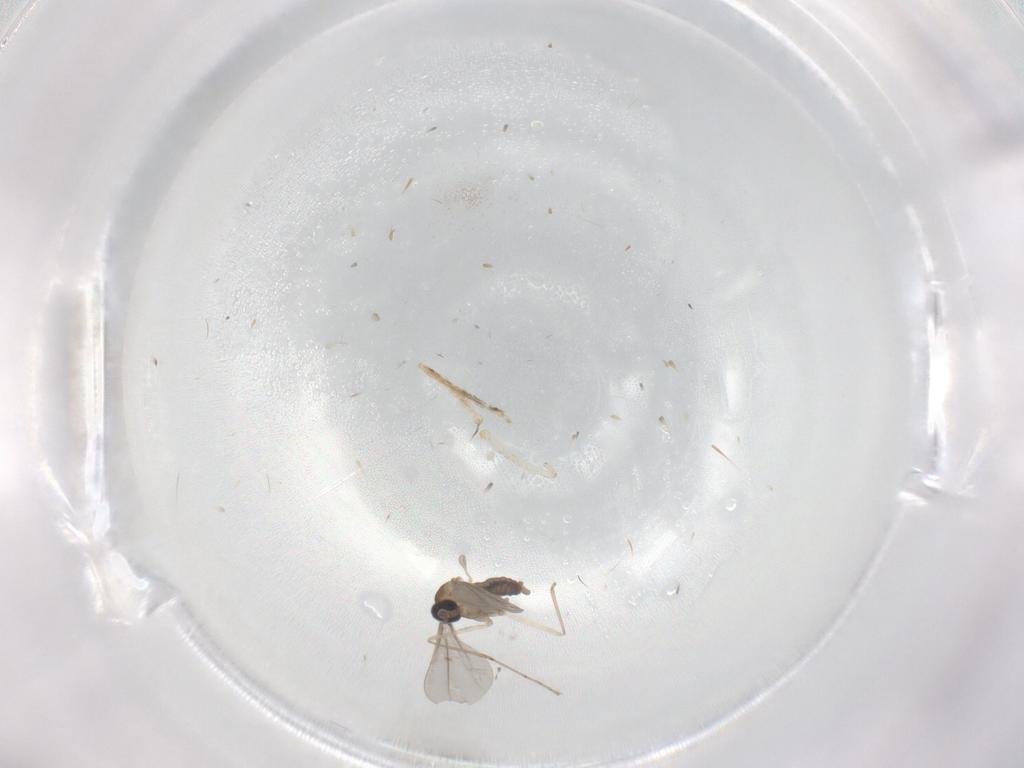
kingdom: Animalia
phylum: Arthropoda
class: Insecta
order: Diptera
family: Cecidomyiidae
